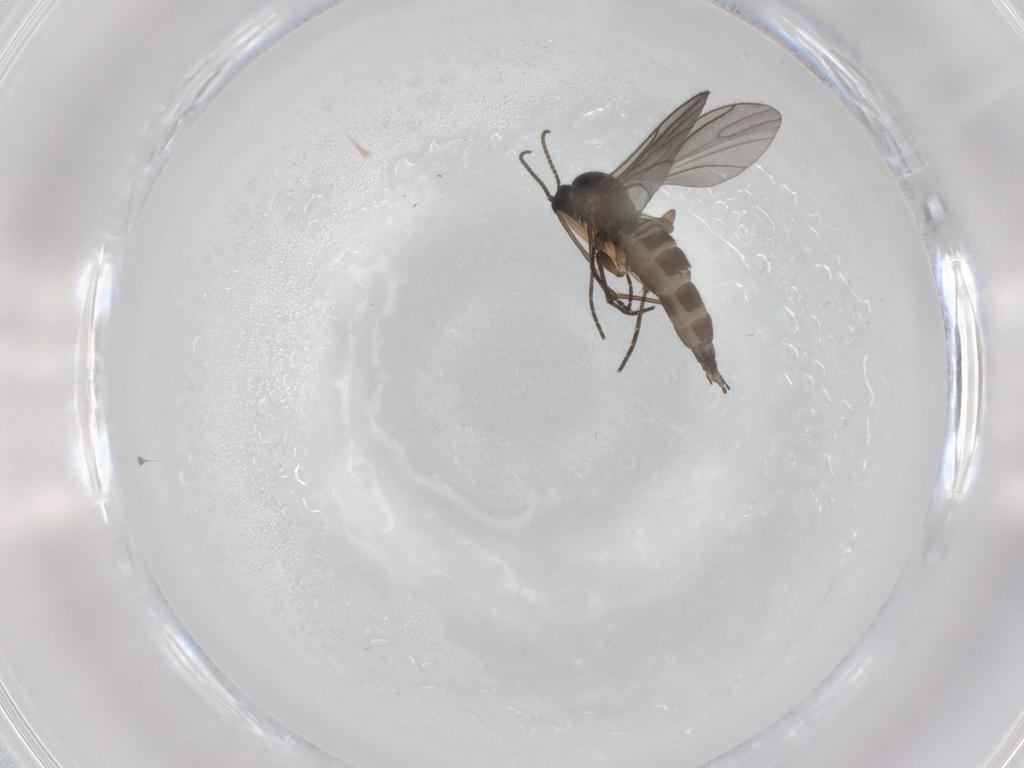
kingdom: Animalia
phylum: Arthropoda
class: Insecta
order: Diptera
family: Sciaridae
